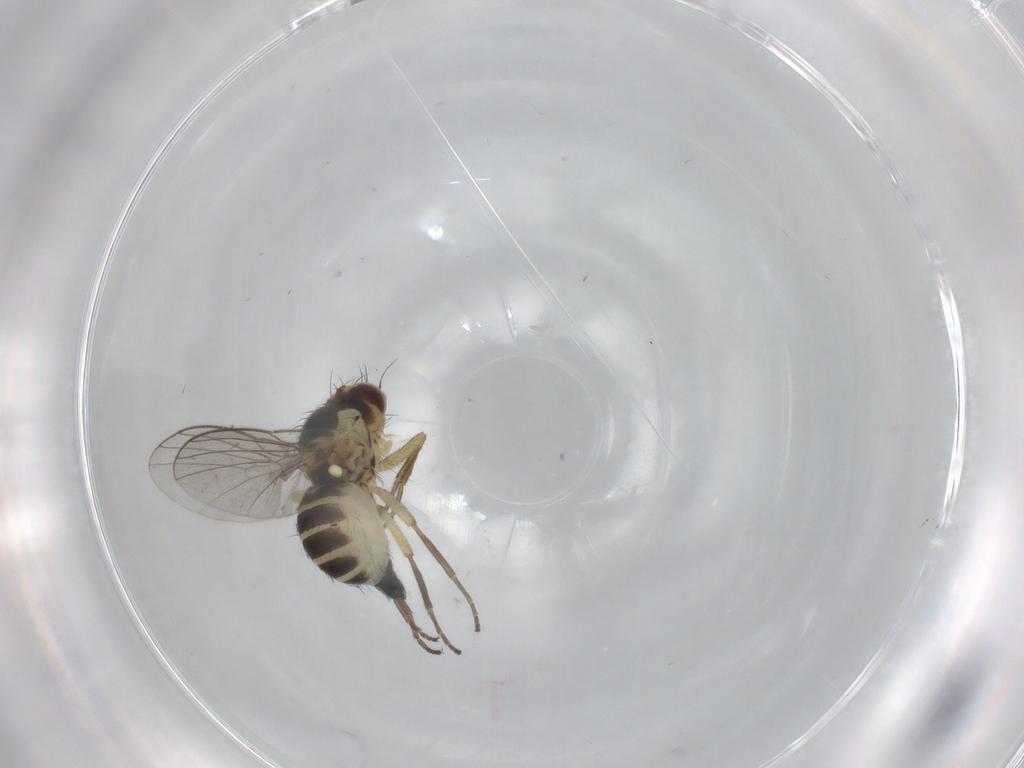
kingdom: Animalia
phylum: Arthropoda
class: Insecta
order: Diptera
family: Agromyzidae
